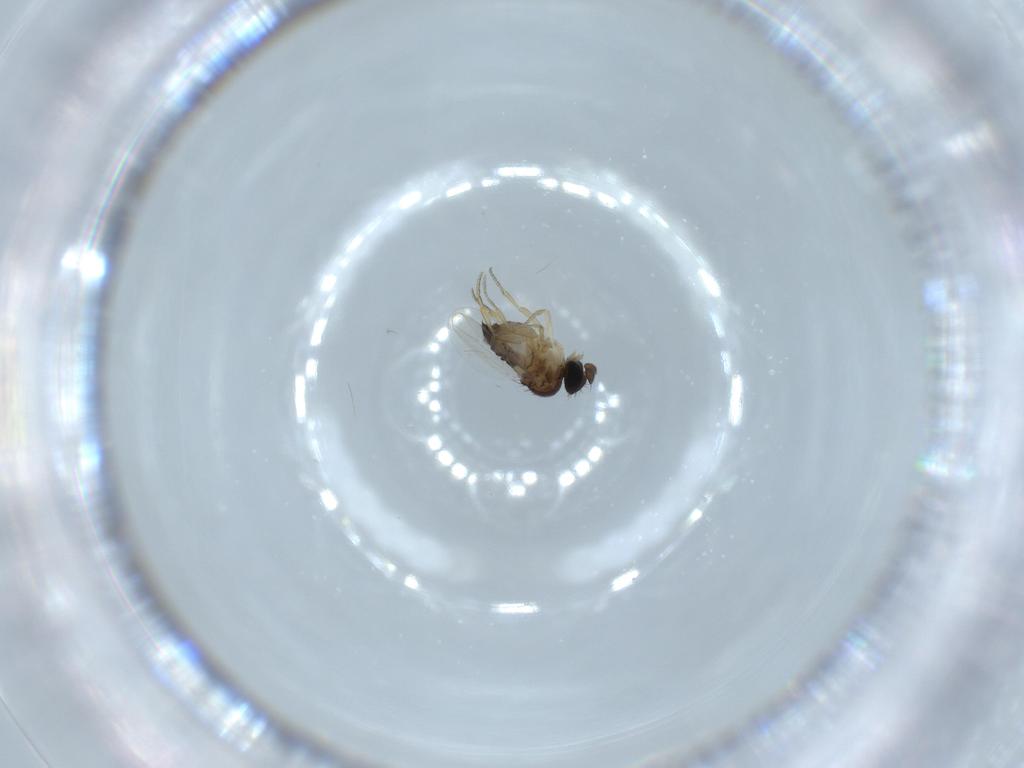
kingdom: Animalia
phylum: Arthropoda
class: Insecta
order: Diptera
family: Phoridae
